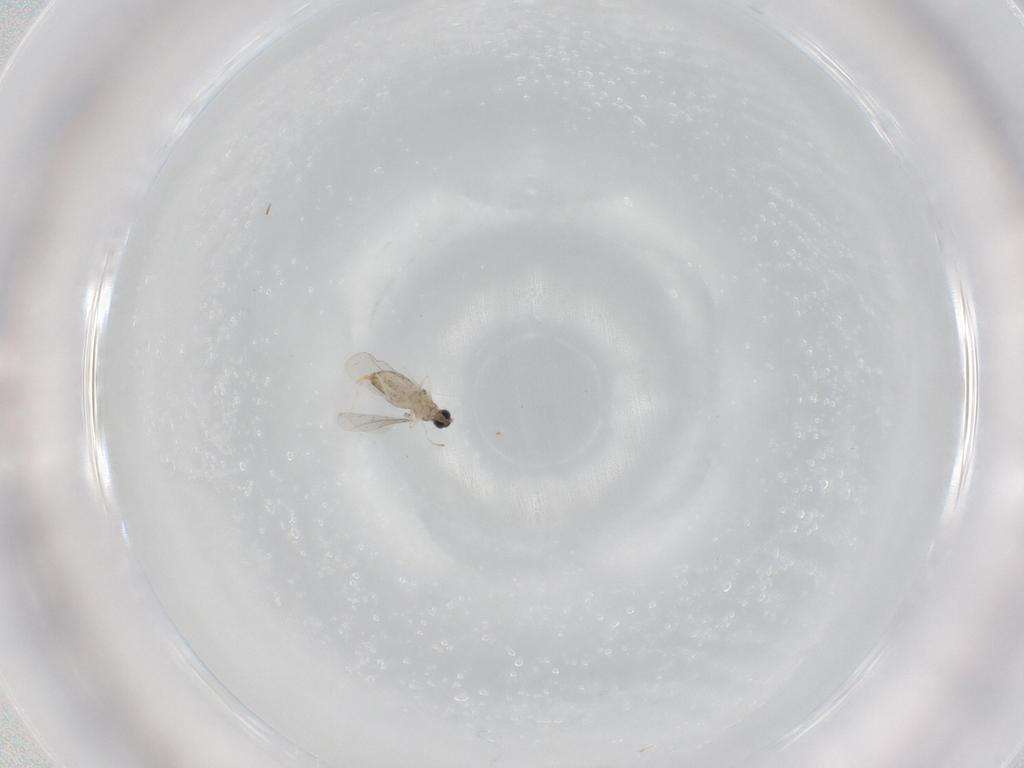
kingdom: Animalia
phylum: Arthropoda
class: Insecta
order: Diptera
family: Cecidomyiidae
